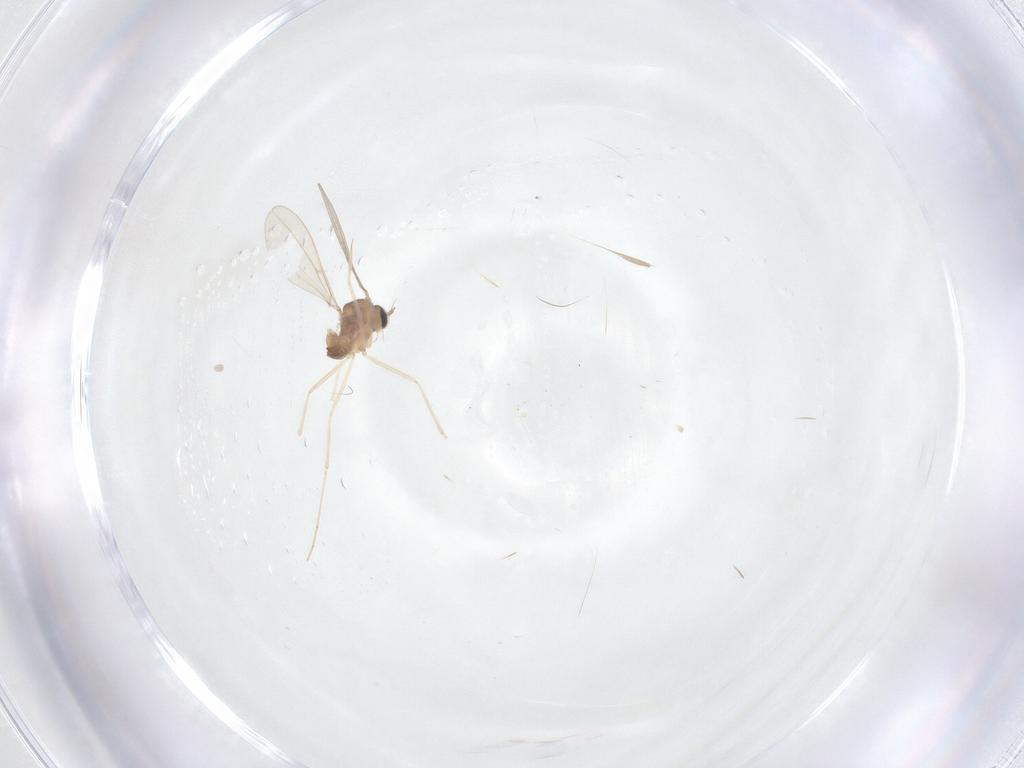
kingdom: Animalia
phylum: Arthropoda
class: Insecta
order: Diptera
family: Cecidomyiidae
